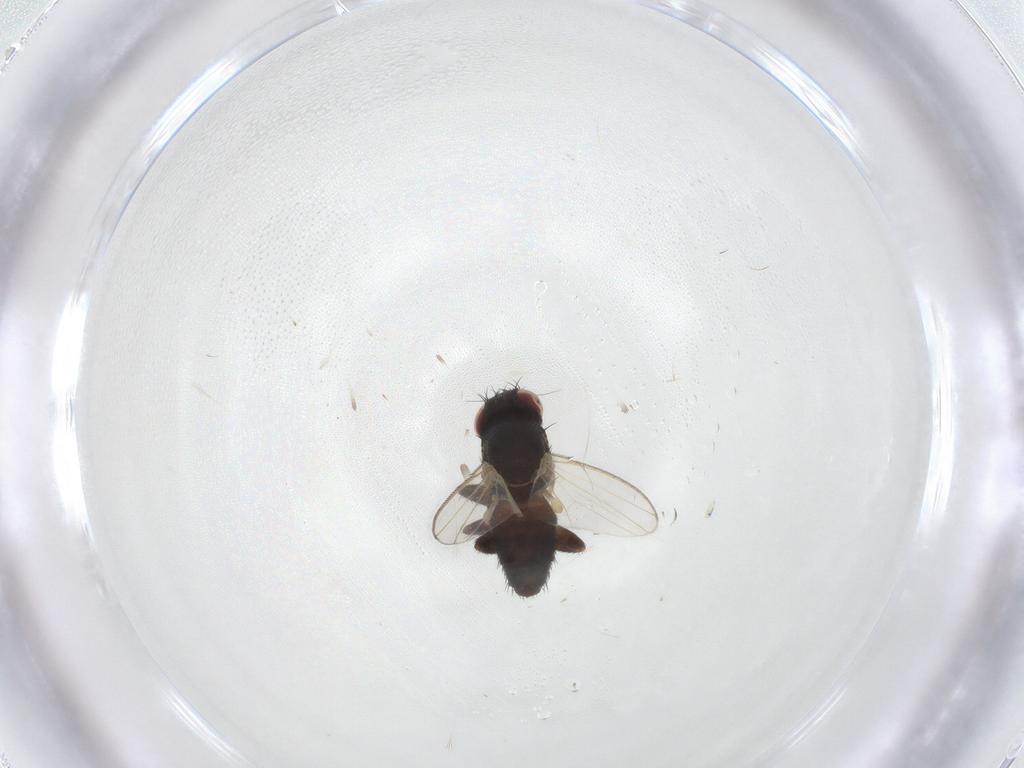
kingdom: Animalia
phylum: Arthropoda
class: Insecta
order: Diptera
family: Milichiidae
